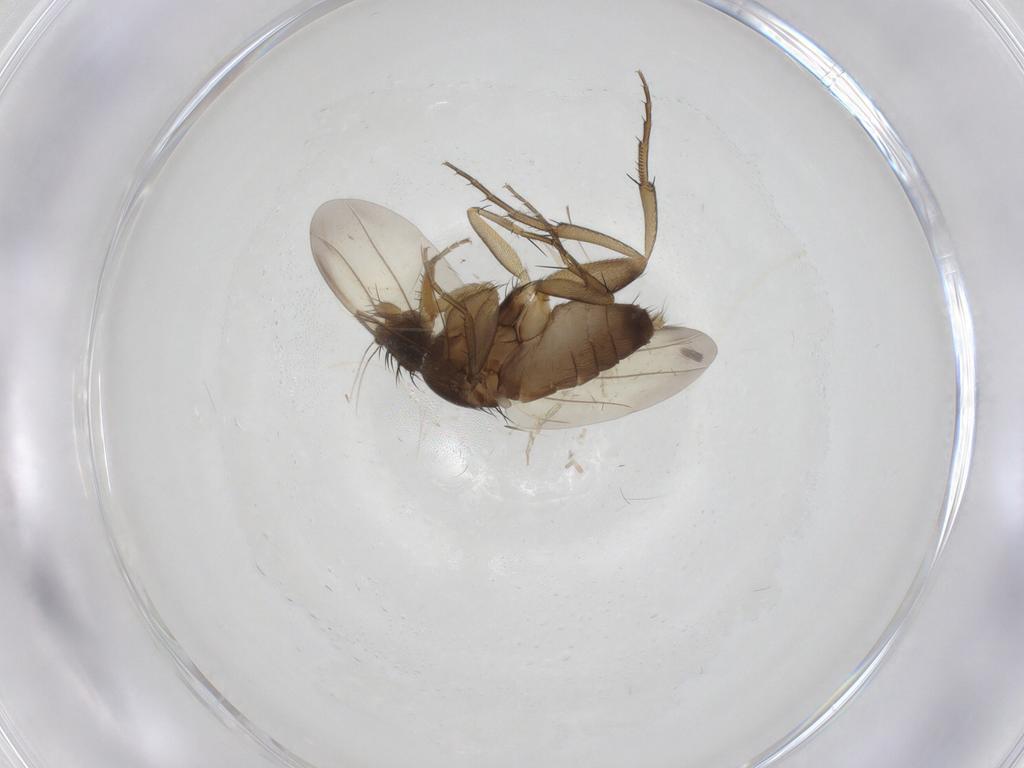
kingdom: Animalia
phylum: Arthropoda
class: Insecta
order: Diptera
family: Phoridae
